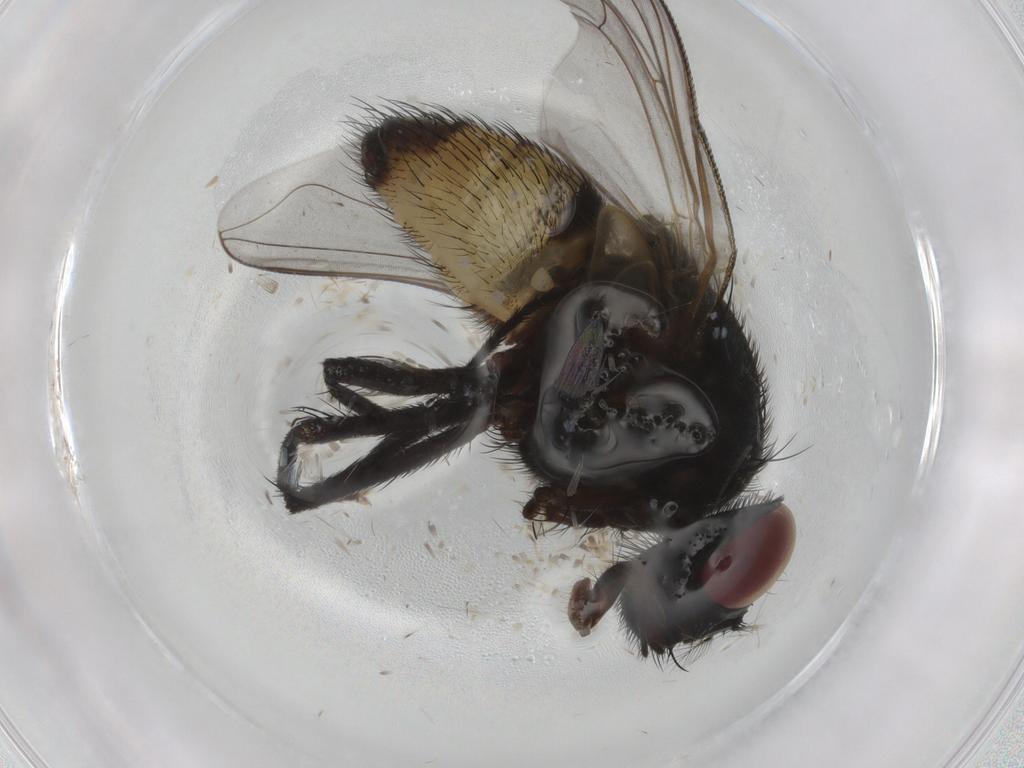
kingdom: Animalia
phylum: Arthropoda
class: Insecta
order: Diptera
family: Muscidae
